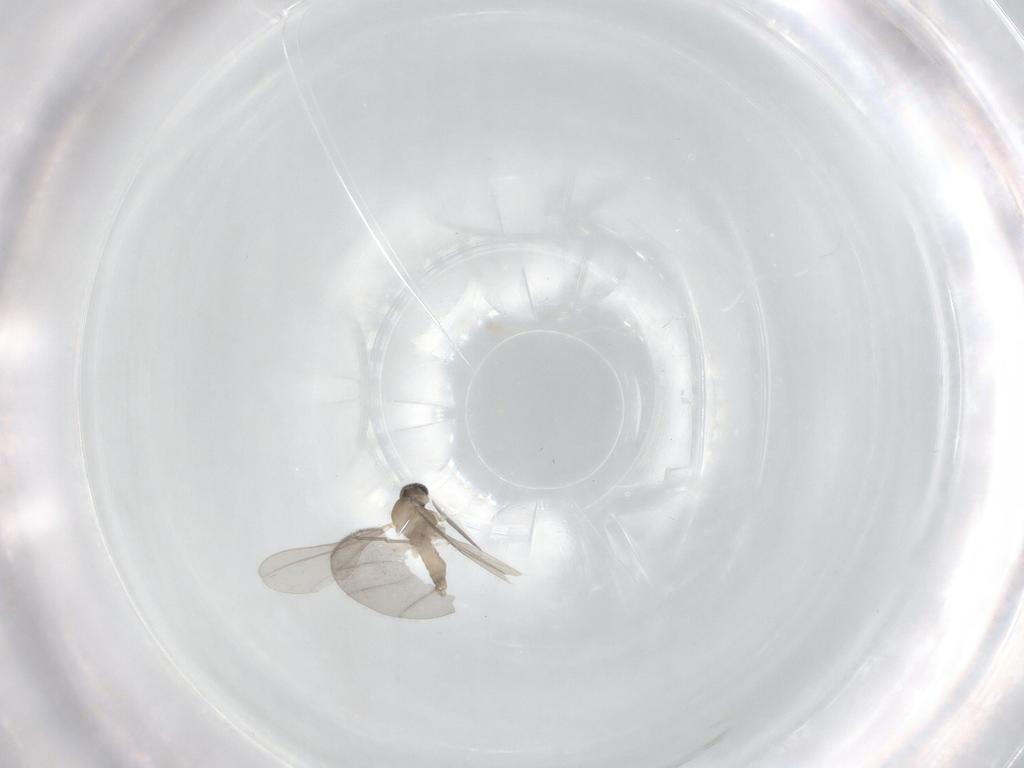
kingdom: Animalia
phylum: Arthropoda
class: Insecta
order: Diptera
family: Cecidomyiidae
